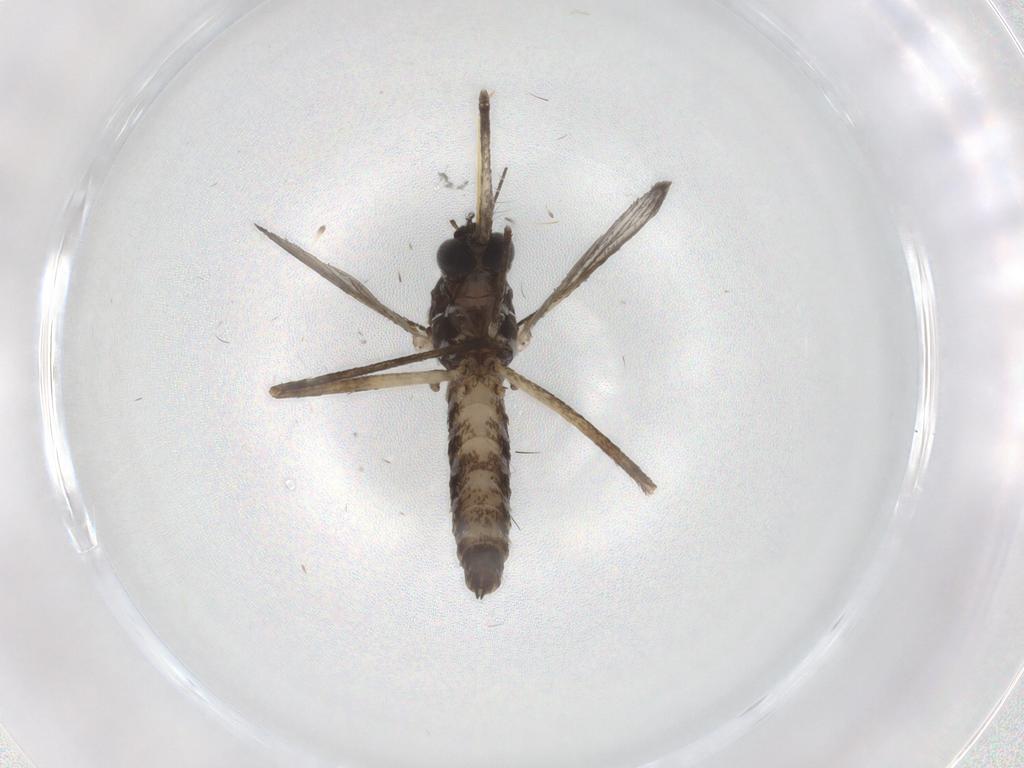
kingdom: Animalia
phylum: Arthropoda
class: Insecta
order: Diptera
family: Culicidae
